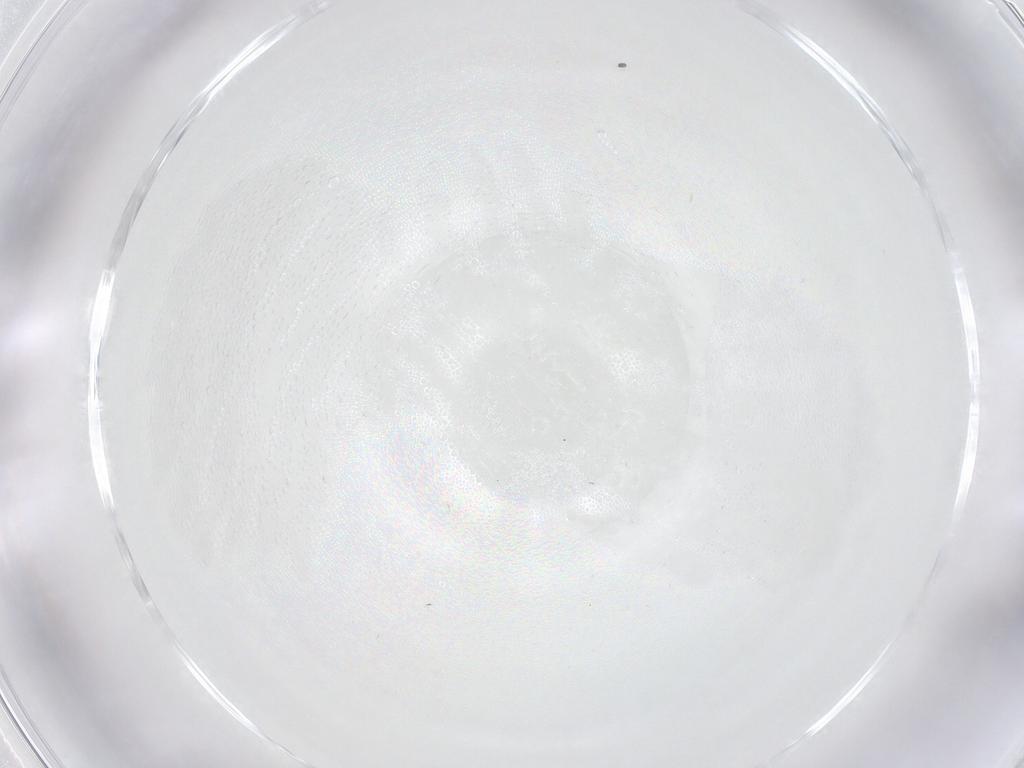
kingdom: Animalia
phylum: Arthropoda
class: Insecta
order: Diptera
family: Cecidomyiidae
